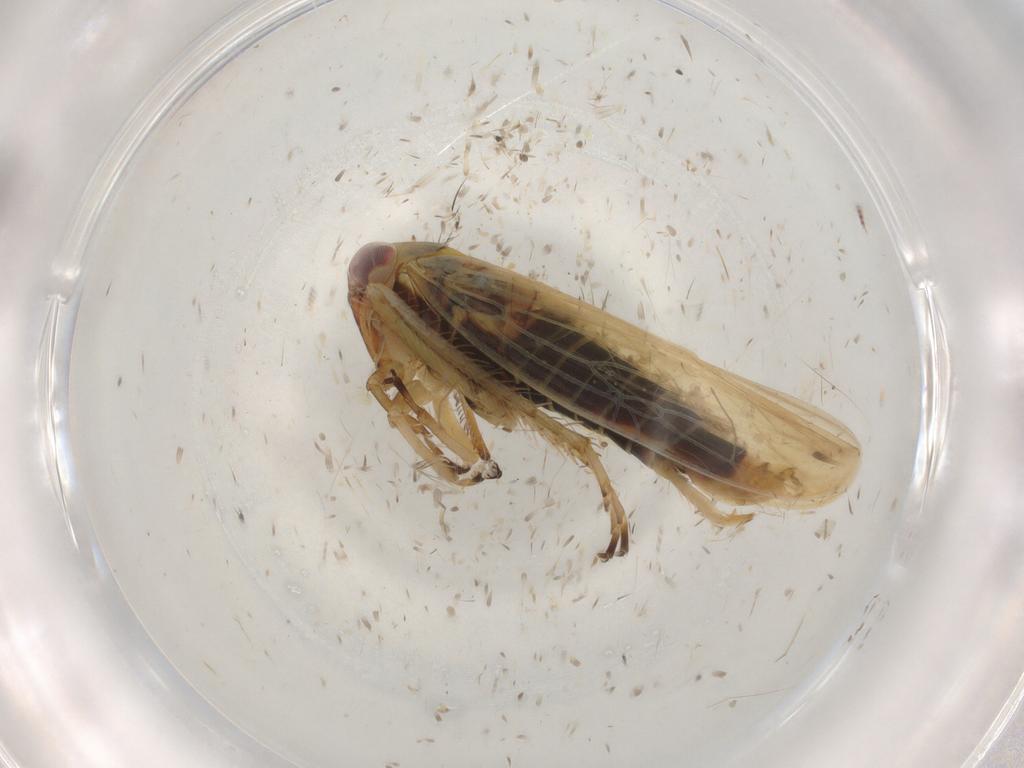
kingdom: Animalia
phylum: Arthropoda
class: Insecta
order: Hemiptera
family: Cicadellidae
